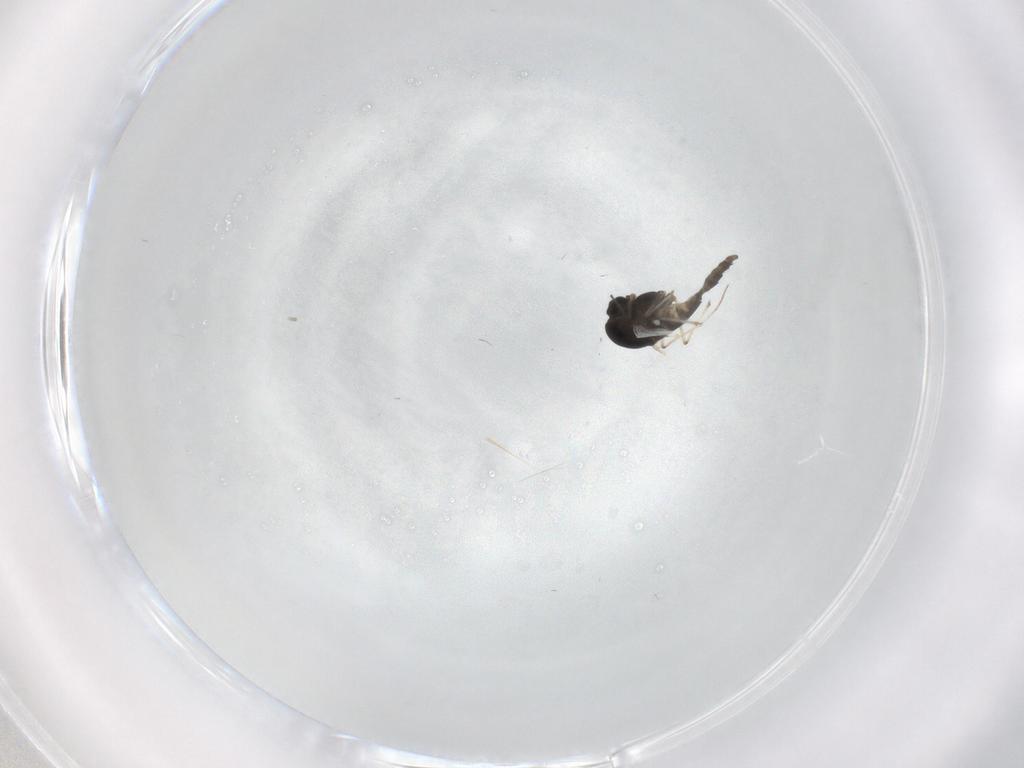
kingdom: Animalia
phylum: Arthropoda
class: Insecta
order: Diptera
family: Chironomidae
